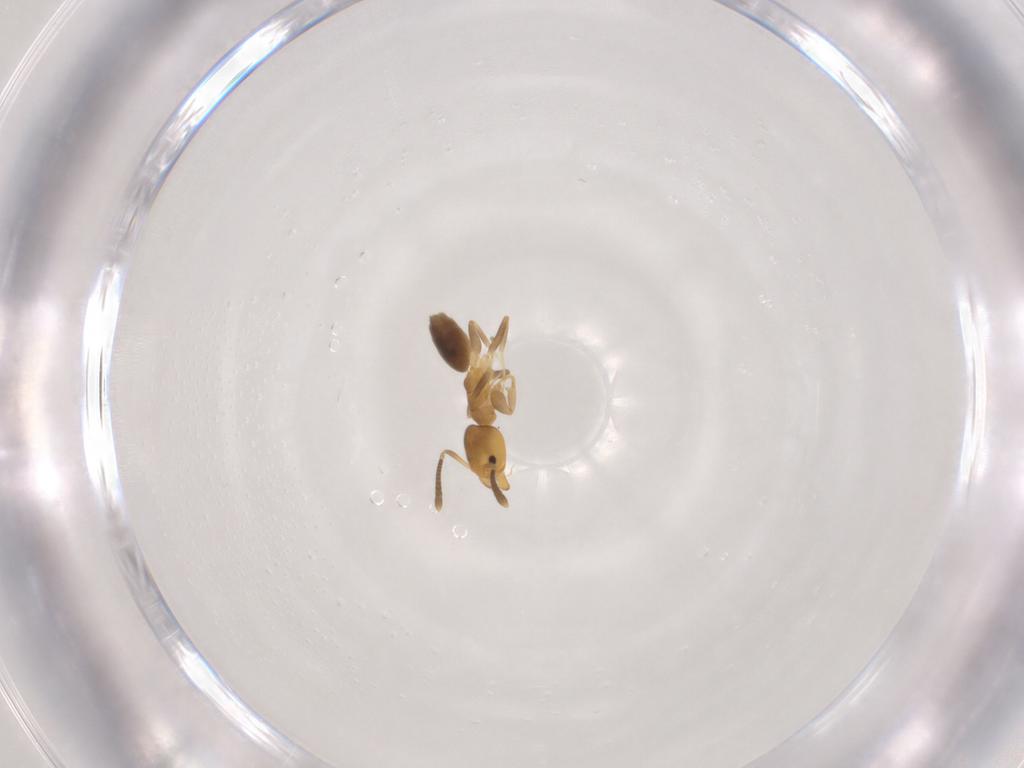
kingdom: Animalia
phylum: Arthropoda
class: Insecta
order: Hymenoptera
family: Formicidae
